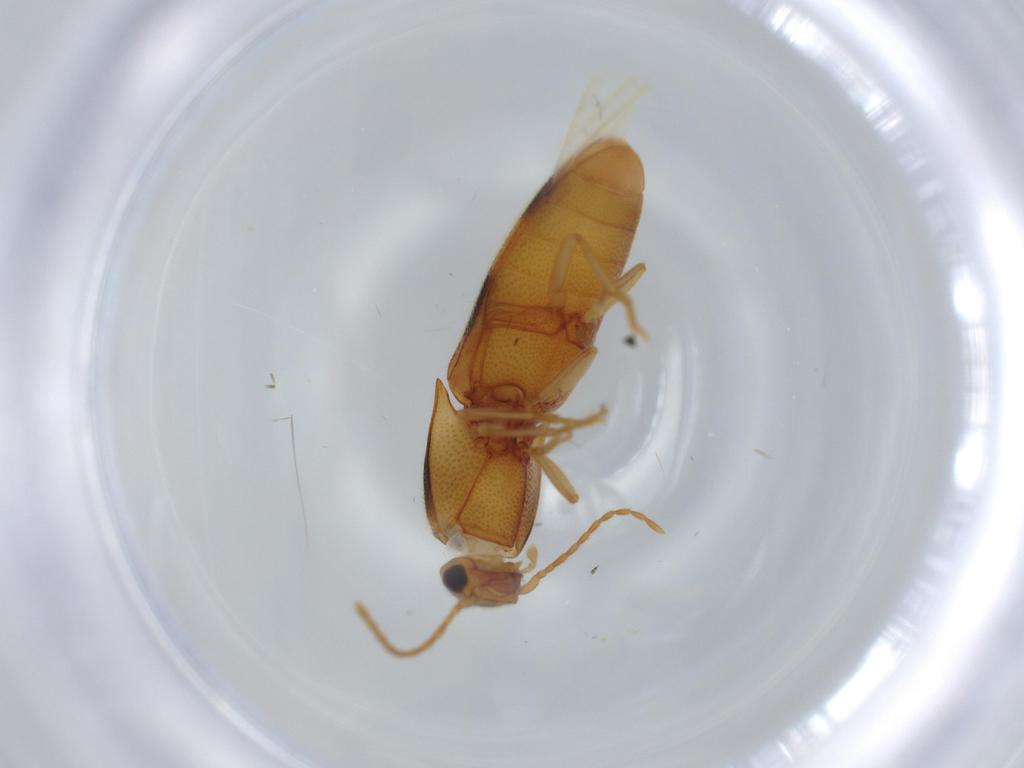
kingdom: Animalia
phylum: Arthropoda
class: Insecta
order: Coleoptera
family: Elateridae
